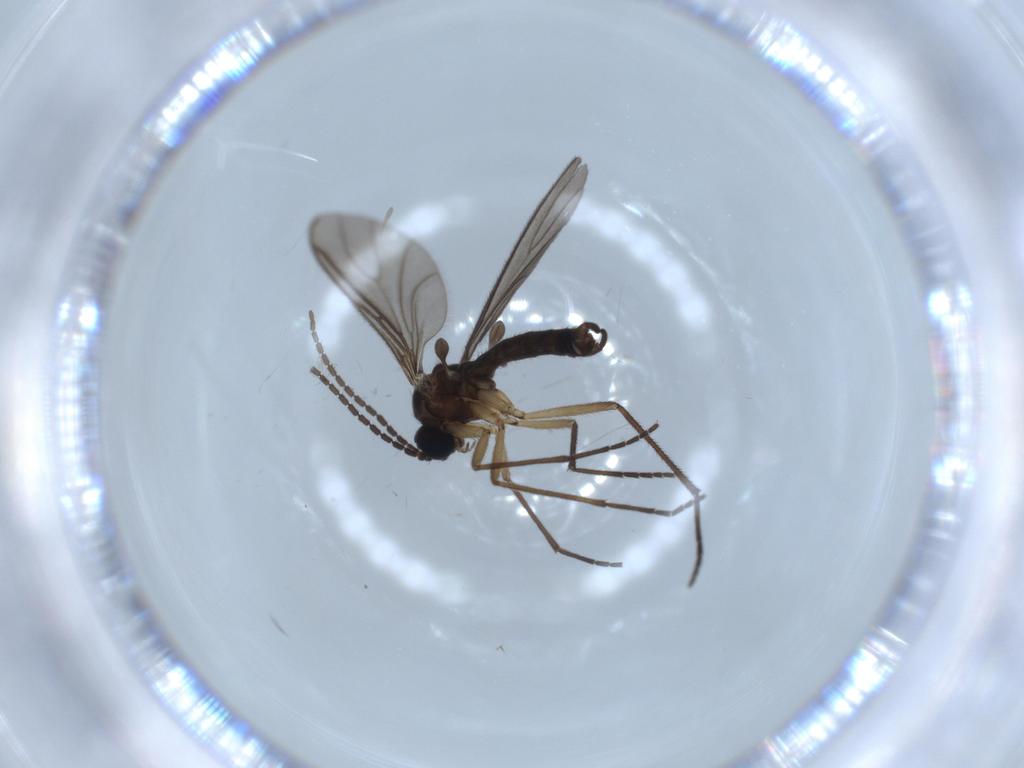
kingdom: Animalia
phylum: Arthropoda
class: Insecta
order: Diptera
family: Sciaridae
